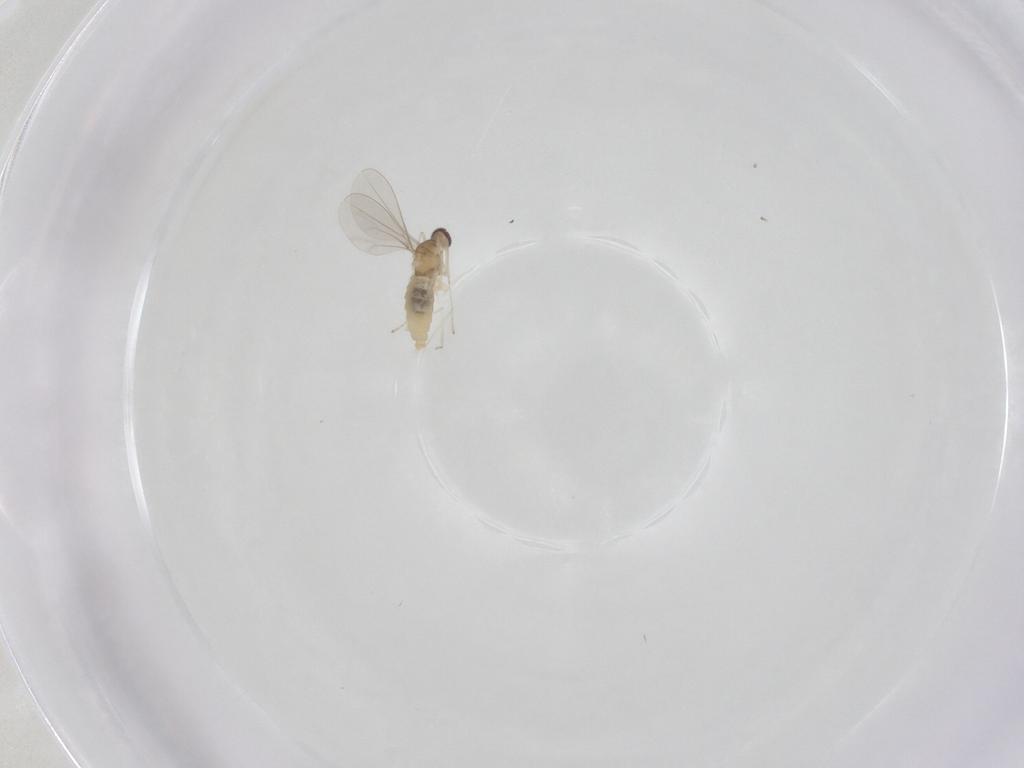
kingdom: Animalia
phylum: Arthropoda
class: Insecta
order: Diptera
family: Cecidomyiidae
